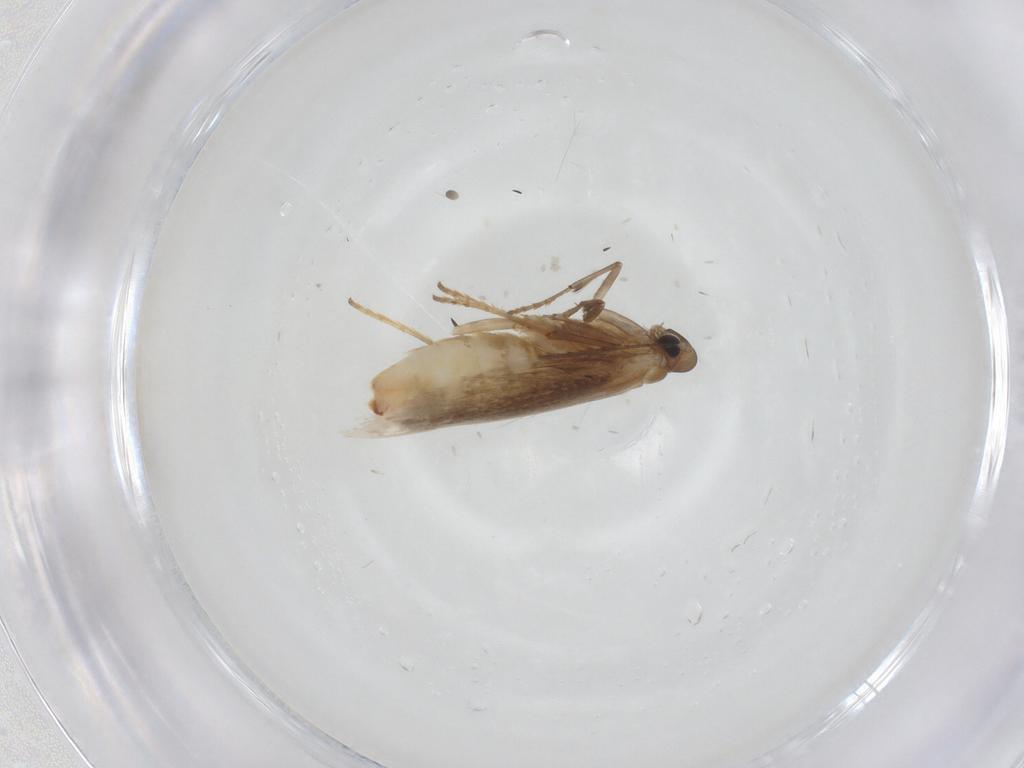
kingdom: Animalia
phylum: Arthropoda
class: Insecta
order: Lepidoptera
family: Tischeriidae
